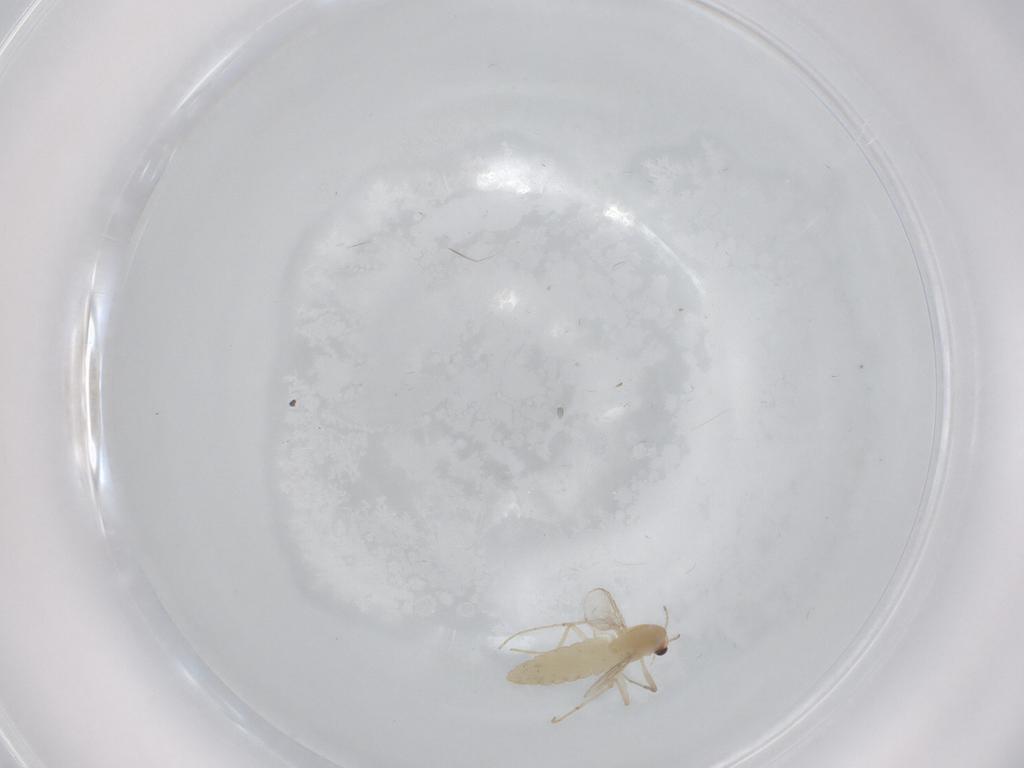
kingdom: Animalia
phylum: Arthropoda
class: Insecta
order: Diptera
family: Chironomidae
